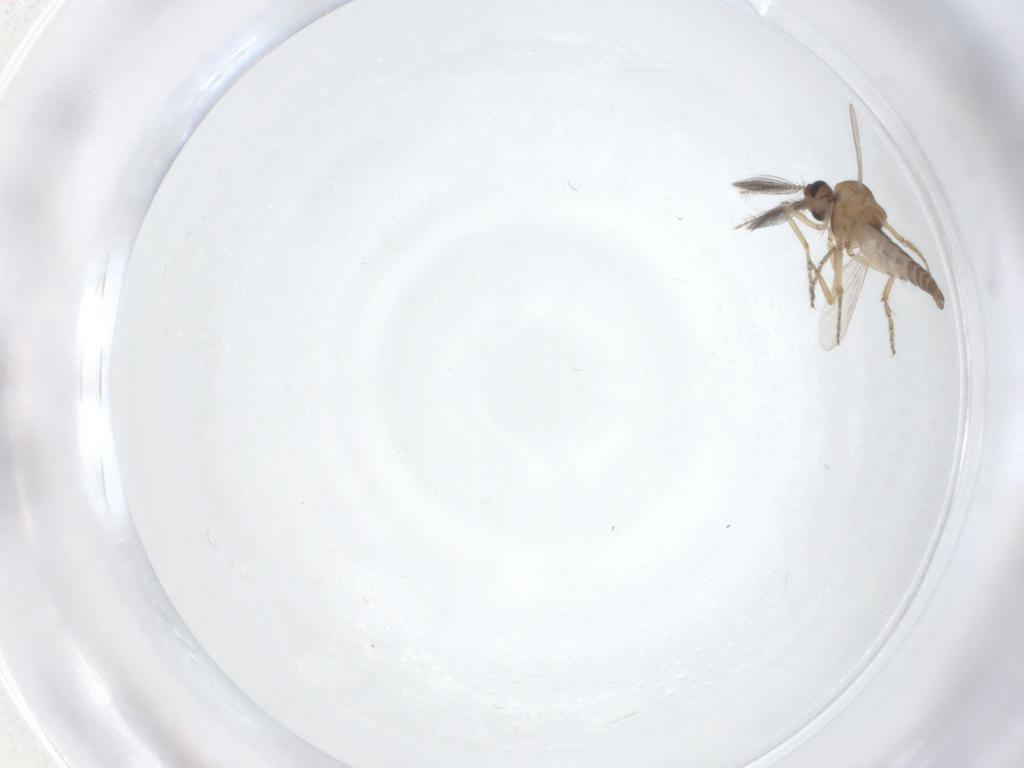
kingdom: Animalia
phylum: Arthropoda
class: Insecta
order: Diptera
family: Ceratopogonidae
